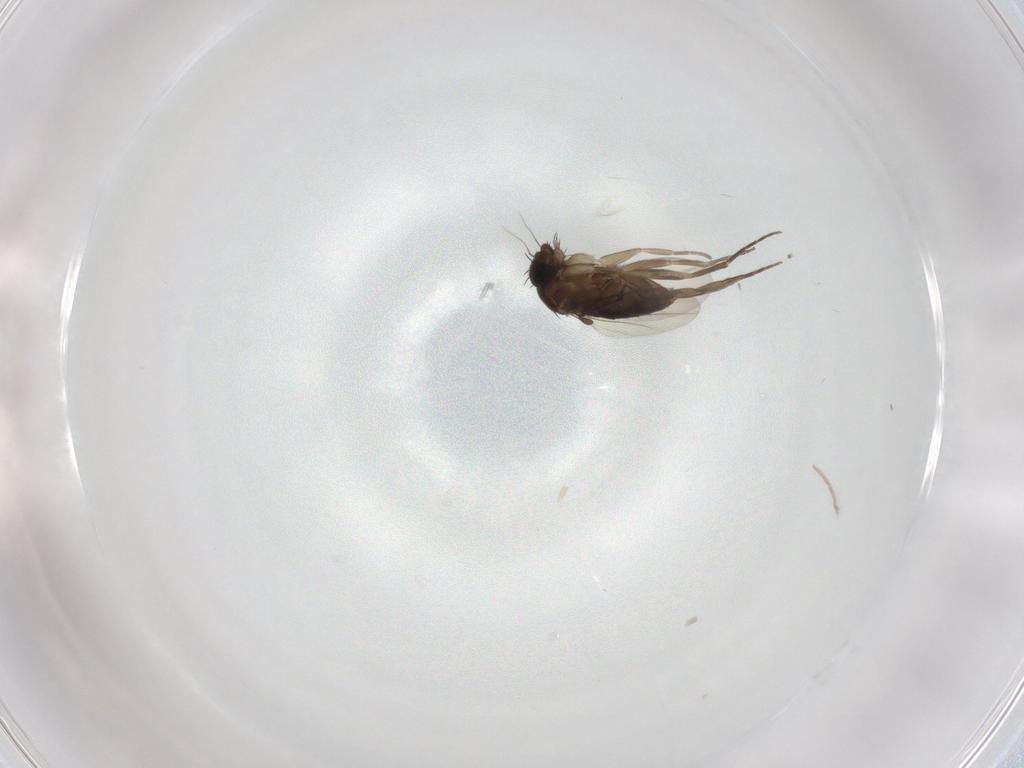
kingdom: Animalia
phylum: Arthropoda
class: Insecta
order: Diptera
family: Phoridae
